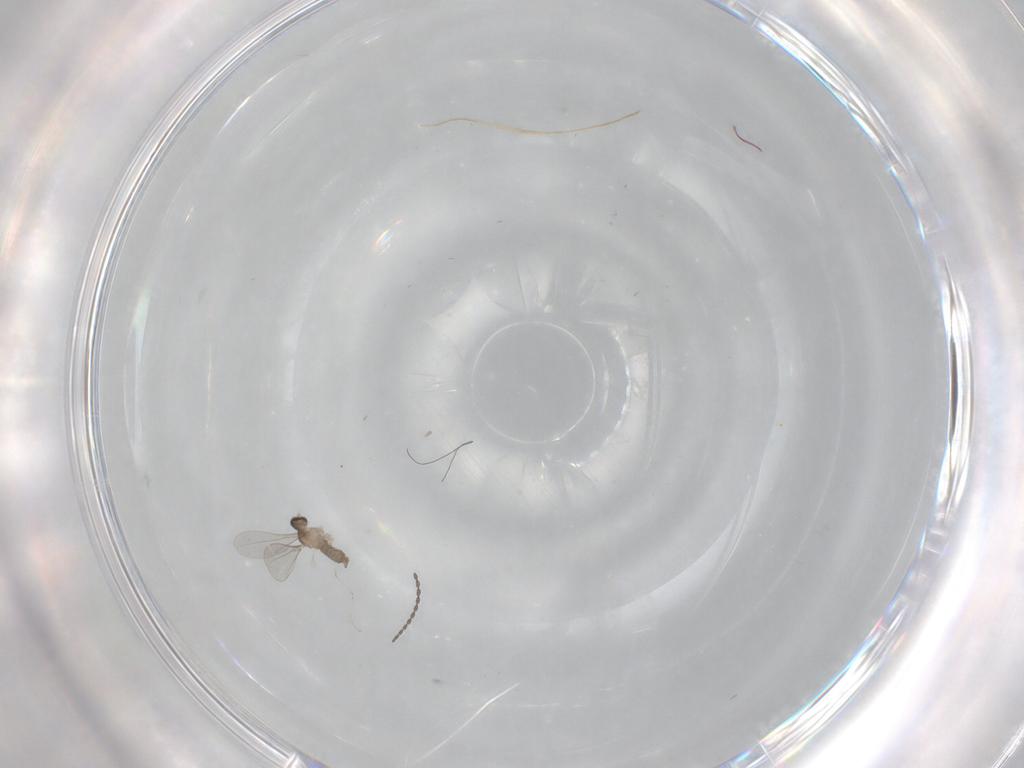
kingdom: Animalia
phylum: Arthropoda
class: Insecta
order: Diptera
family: Cecidomyiidae
